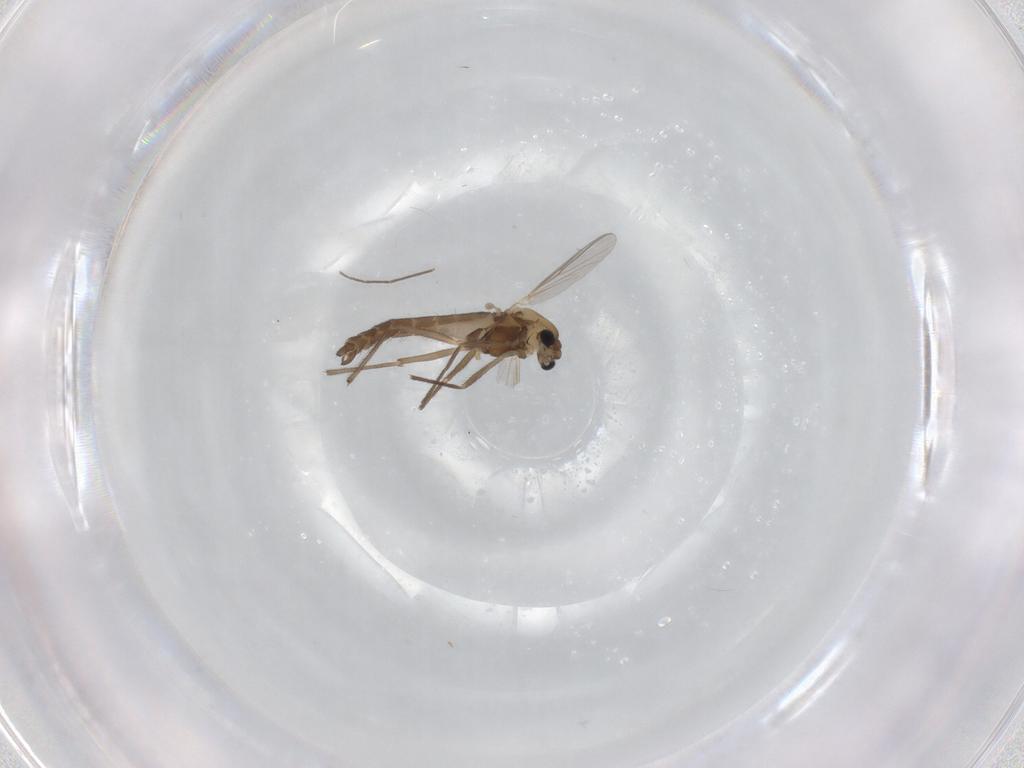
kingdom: Animalia
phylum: Arthropoda
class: Insecta
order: Diptera
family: Chironomidae
